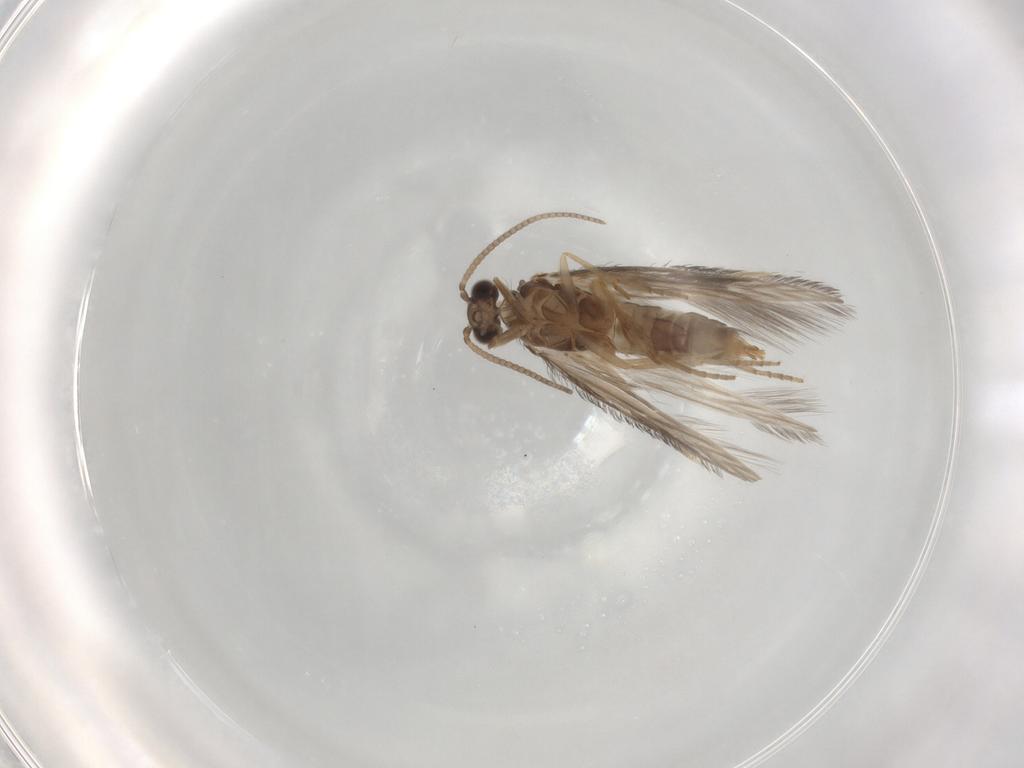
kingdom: Animalia
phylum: Arthropoda
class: Insecta
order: Trichoptera
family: Hydroptilidae
